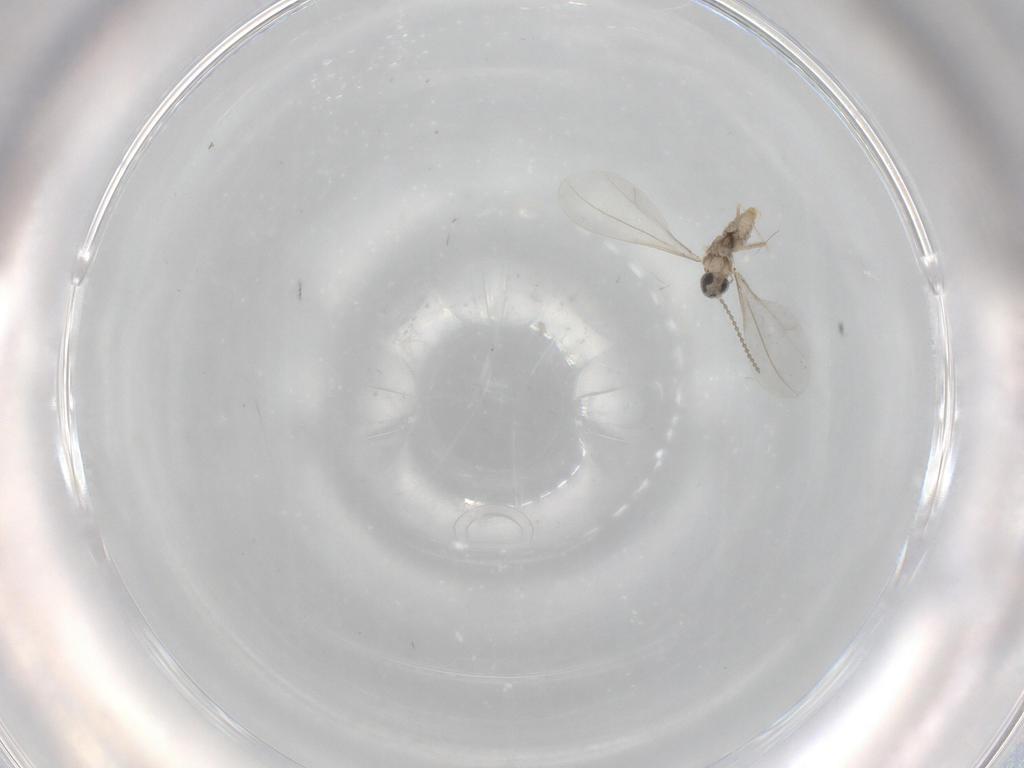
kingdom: Animalia
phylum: Arthropoda
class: Insecta
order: Diptera
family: Cecidomyiidae
